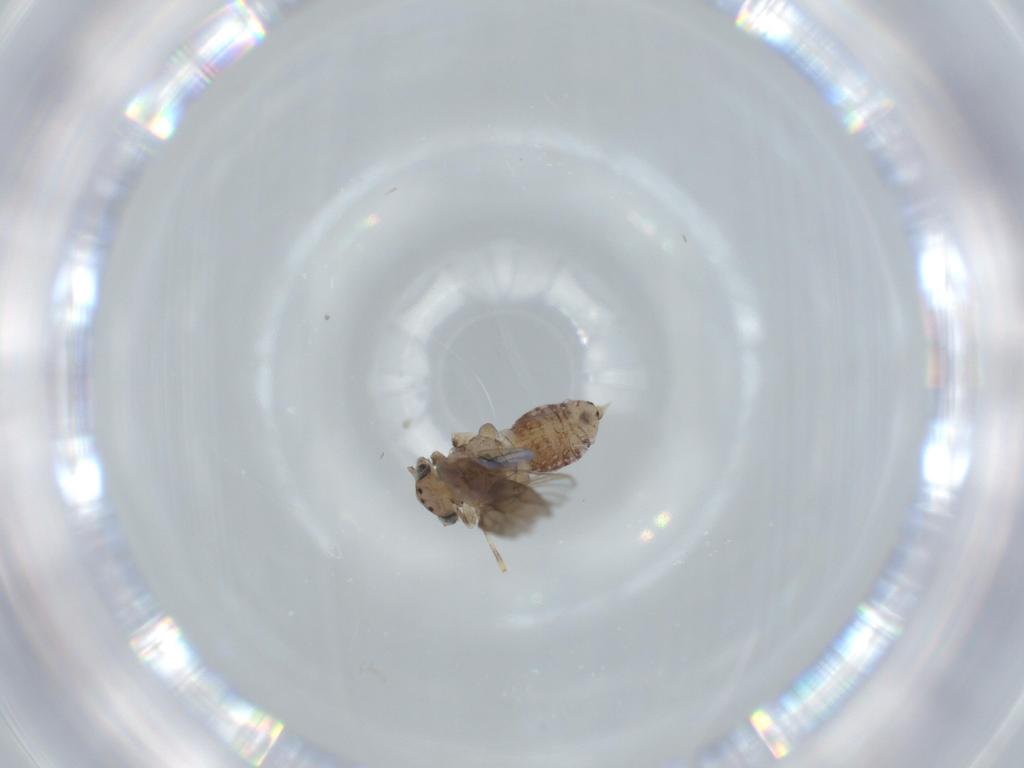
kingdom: Animalia
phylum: Arthropoda
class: Insecta
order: Psocodea
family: Lepidopsocidae
